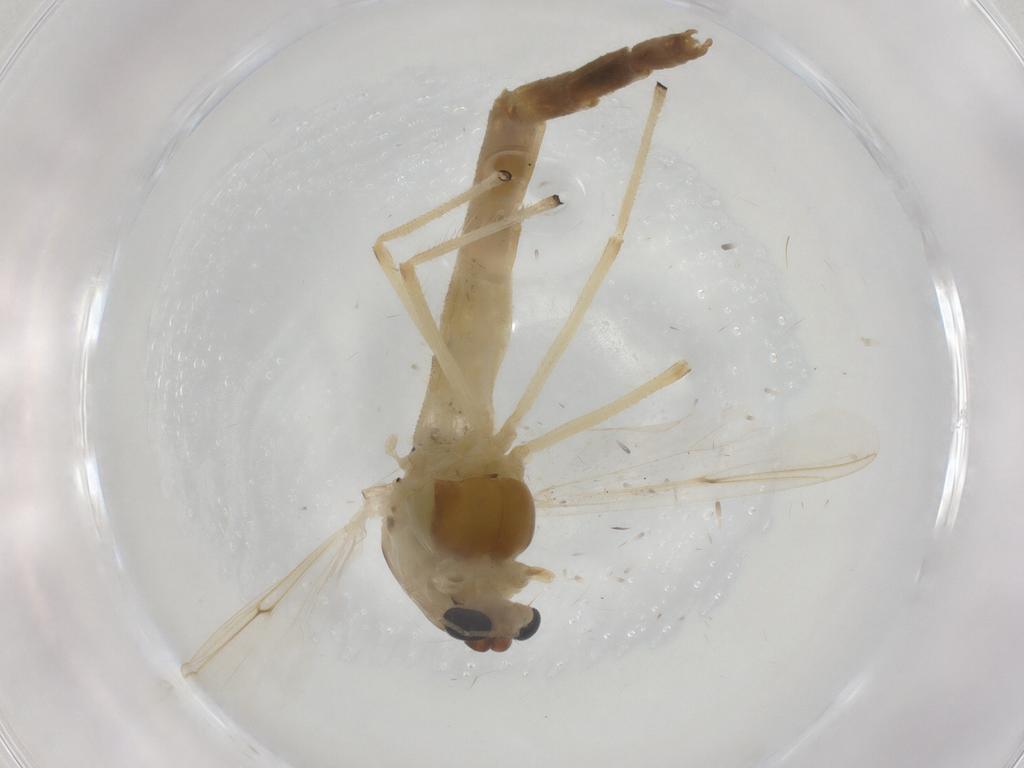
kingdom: Animalia
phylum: Arthropoda
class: Insecta
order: Diptera
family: Chironomidae
